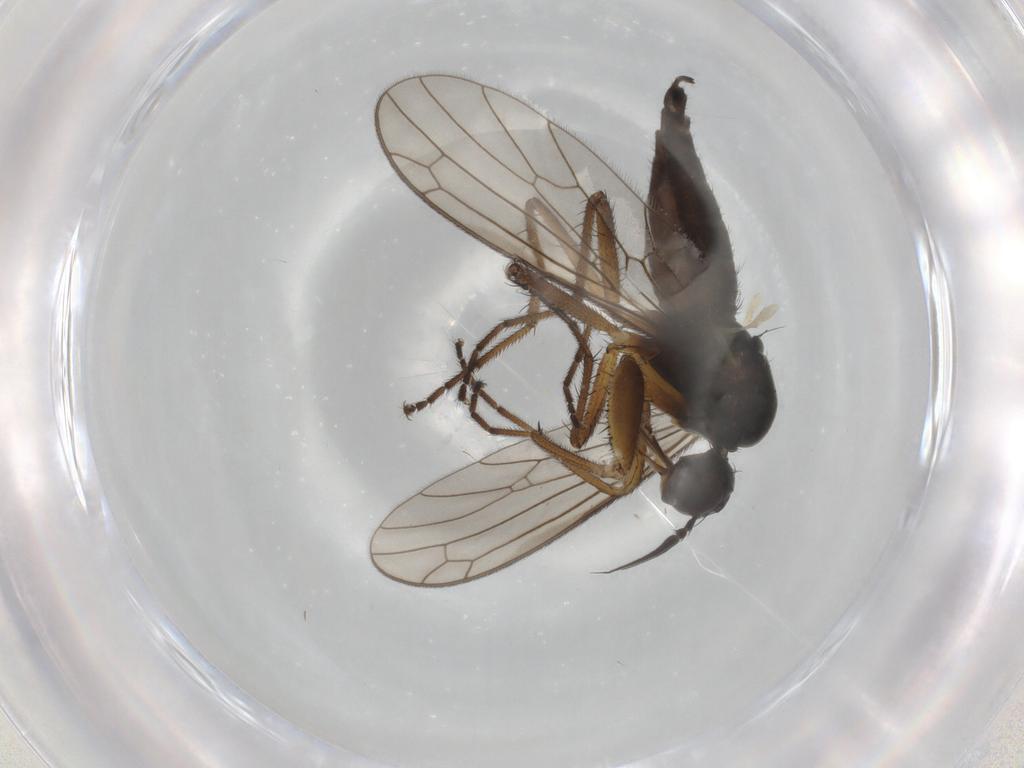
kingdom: Animalia
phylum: Arthropoda
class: Insecta
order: Diptera
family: Empididae
